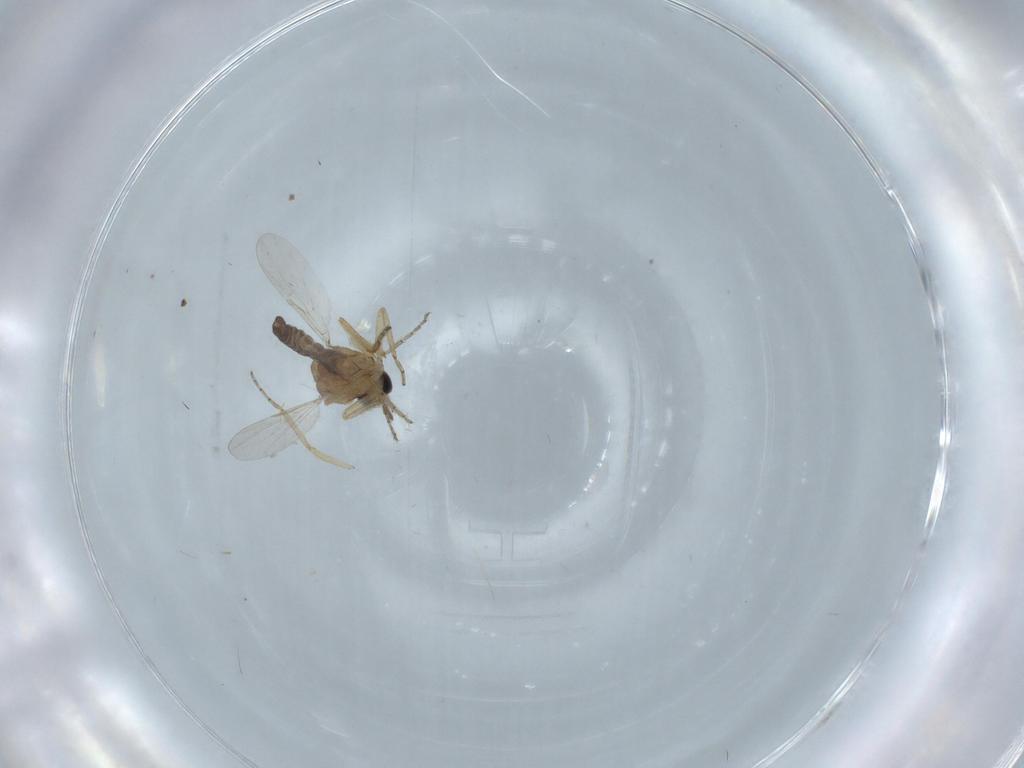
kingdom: Animalia
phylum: Arthropoda
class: Insecta
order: Diptera
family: Ceratopogonidae
